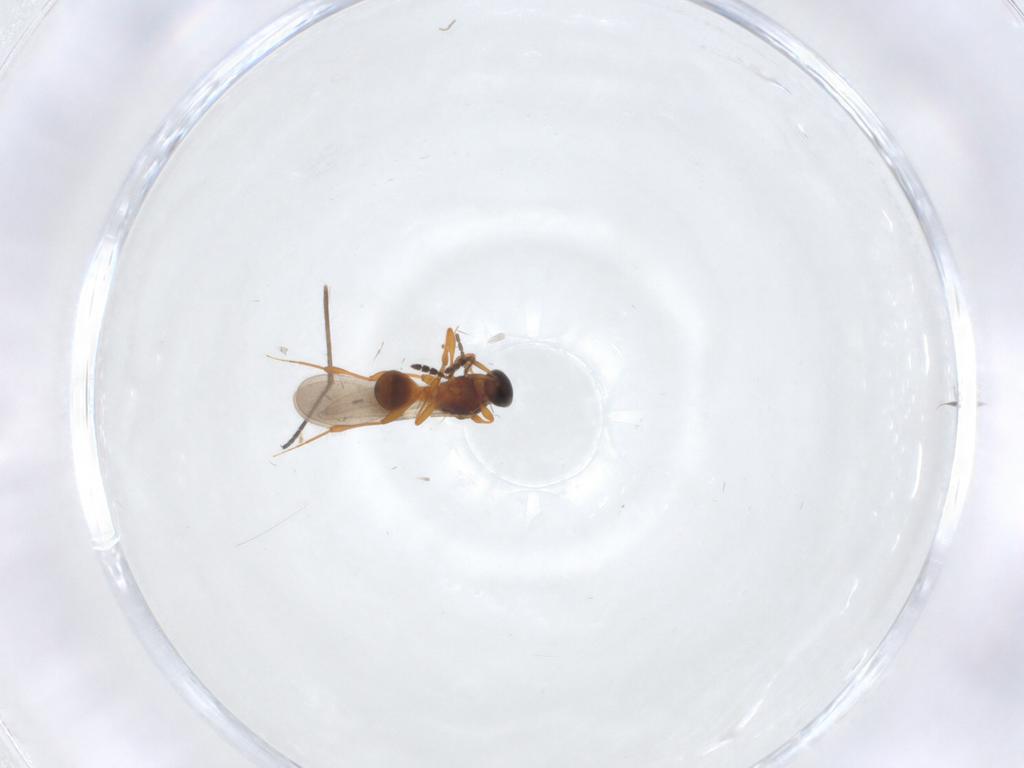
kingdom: Animalia
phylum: Arthropoda
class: Insecta
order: Hymenoptera
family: Platygastridae
